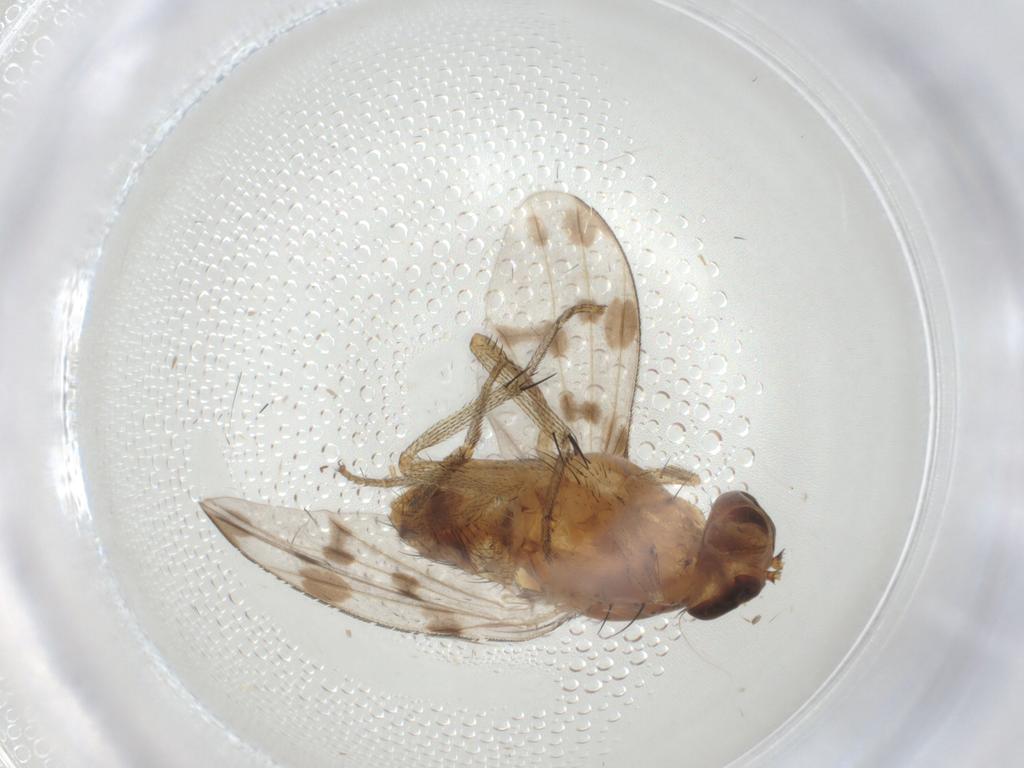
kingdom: Animalia
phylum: Arthropoda
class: Insecta
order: Diptera
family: Lauxaniidae
